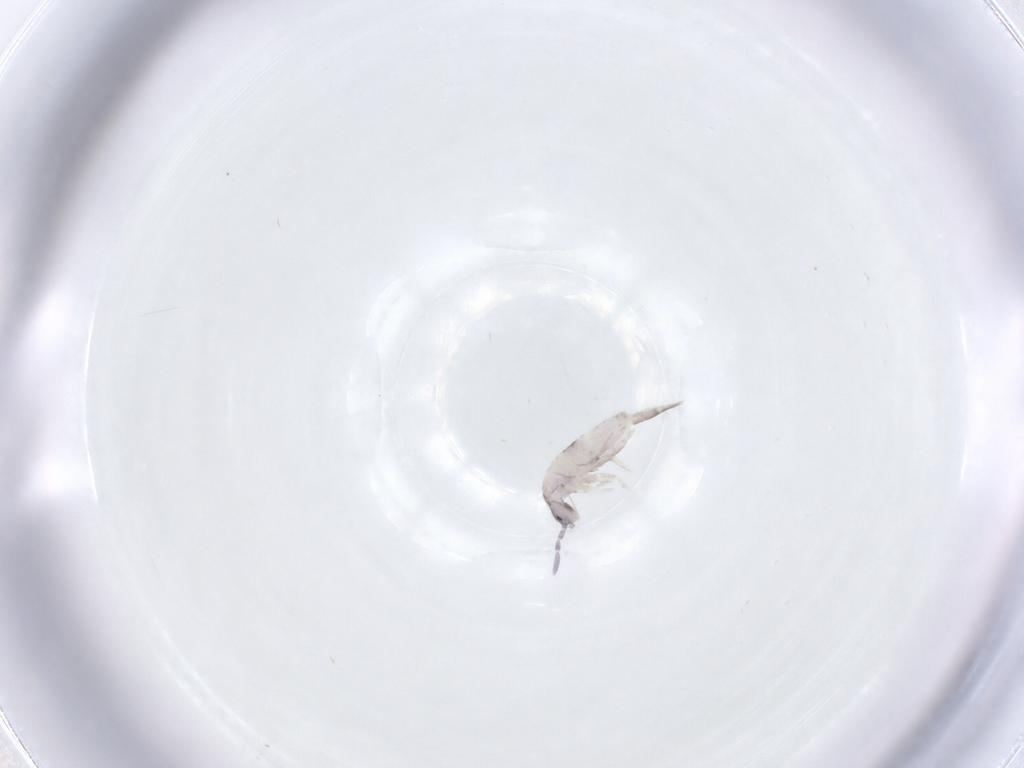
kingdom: Animalia
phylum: Arthropoda
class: Collembola
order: Entomobryomorpha
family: Entomobryidae
